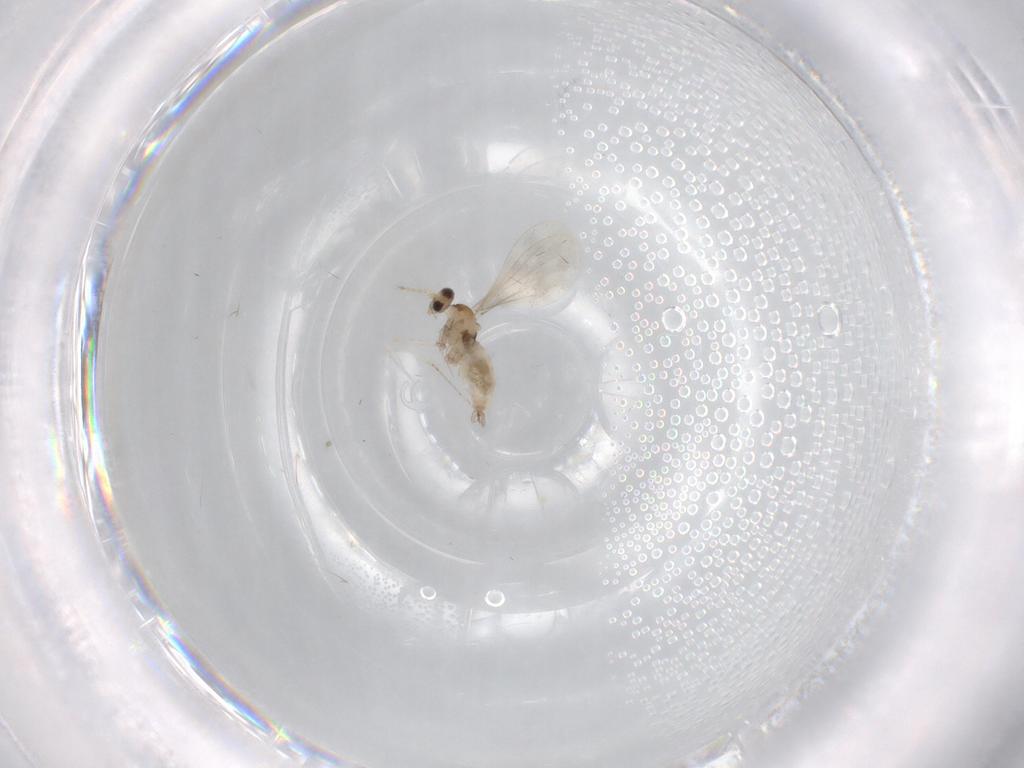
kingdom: Animalia
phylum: Arthropoda
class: Insecta
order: Diptera
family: Cecidomyiidae
